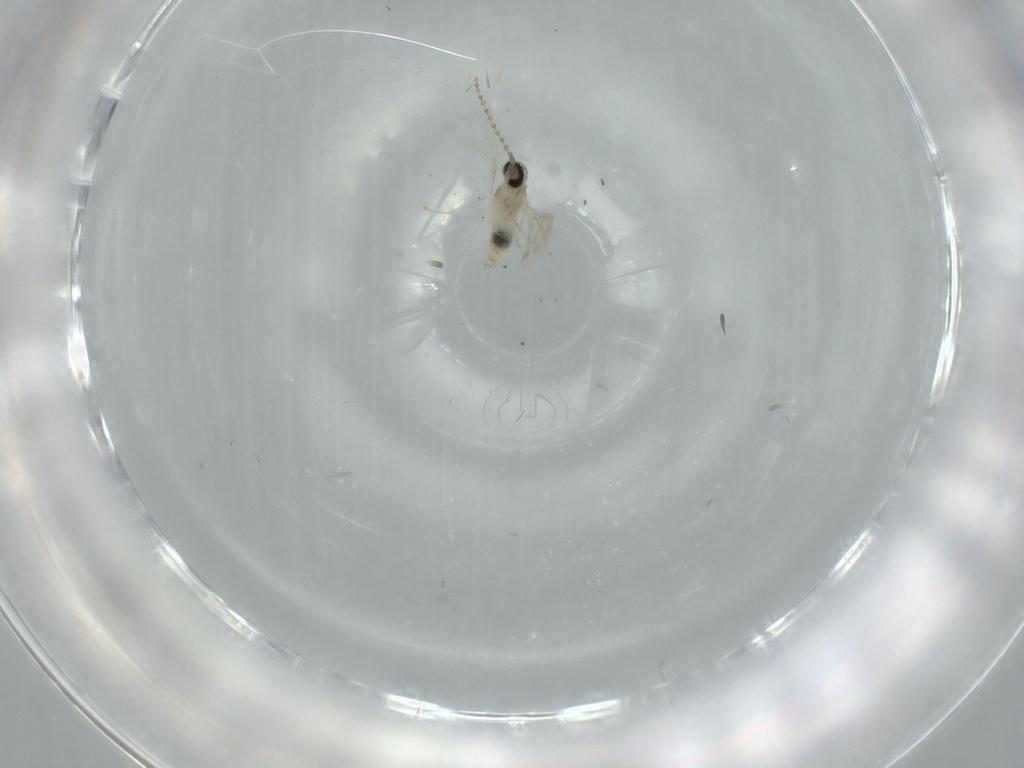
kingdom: Animalia
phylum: Arthropoda
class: Insecta
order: Diptera
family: Cecidomyiidae
